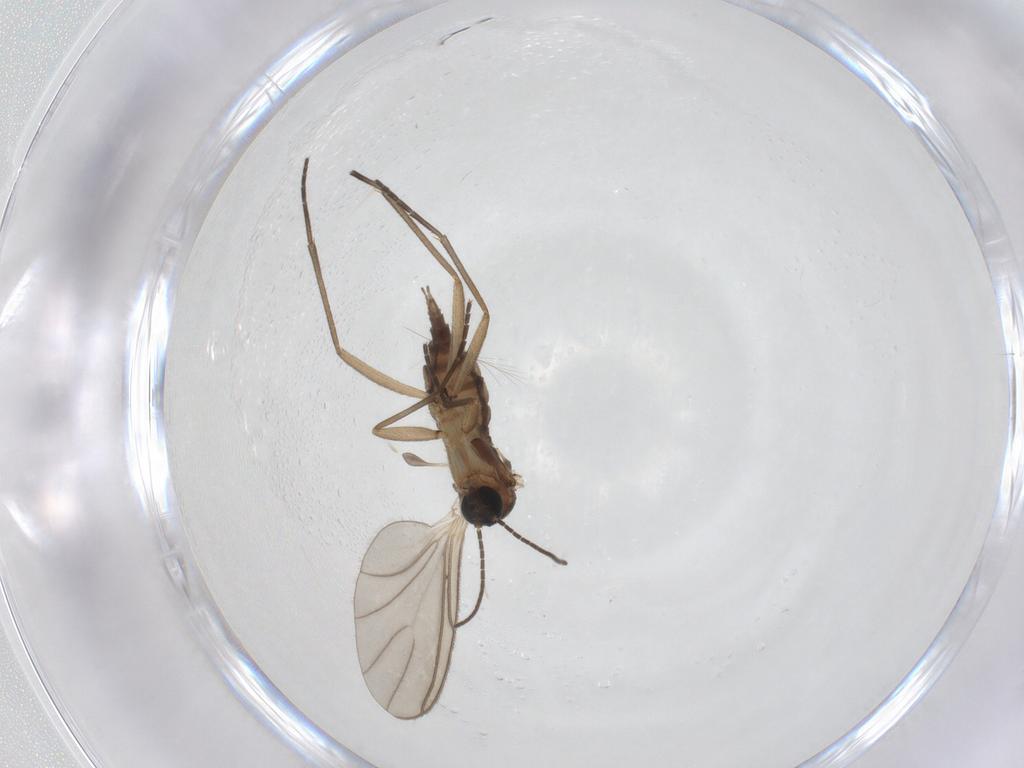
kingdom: Animalia
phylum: Arthropoda
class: Insecta
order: Diptera
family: Sciaridae
